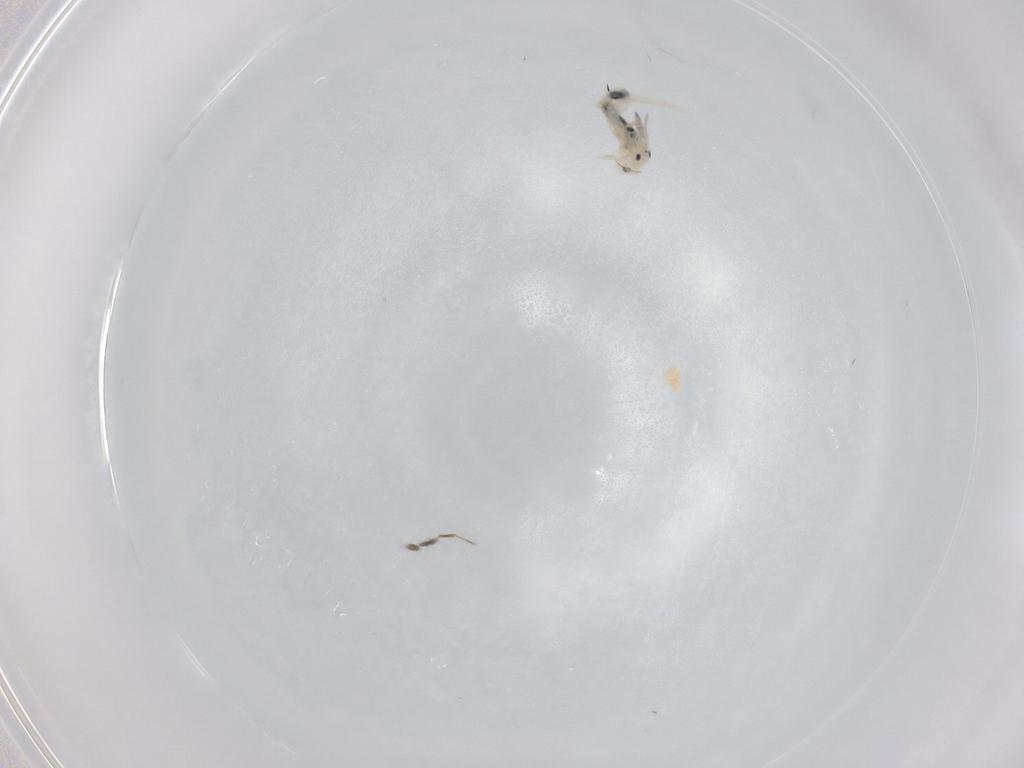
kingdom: Animalia
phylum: Arthropoda
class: Collembola
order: Entomobryomorpha
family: Entomobryidae
